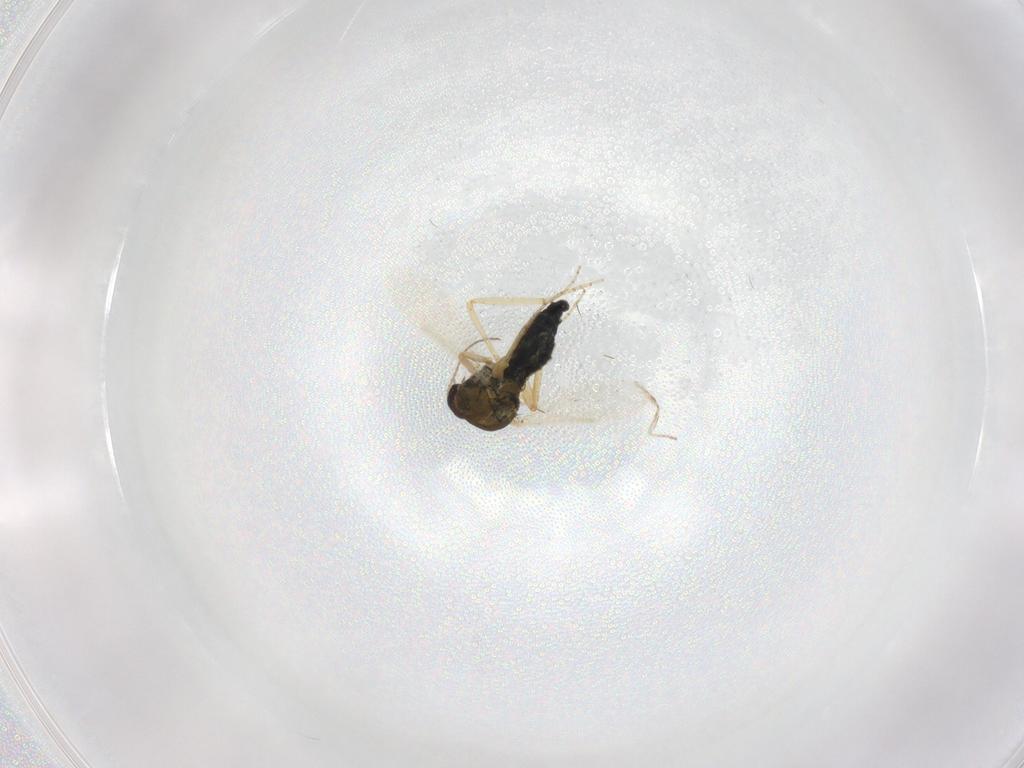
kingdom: Animalia
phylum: Arthropoda
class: Insecta
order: Diptera
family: Ceratopogonidae
